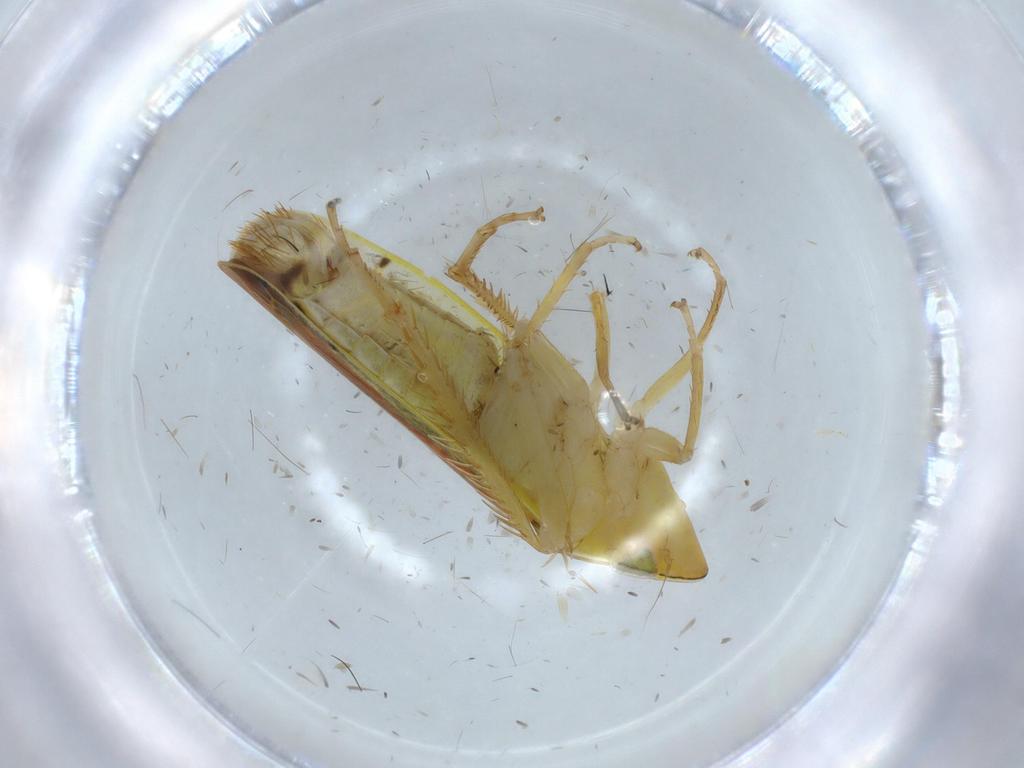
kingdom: Animalia
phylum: Arthropoda
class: Insecta
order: Hemiptera
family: Cicadellidae
